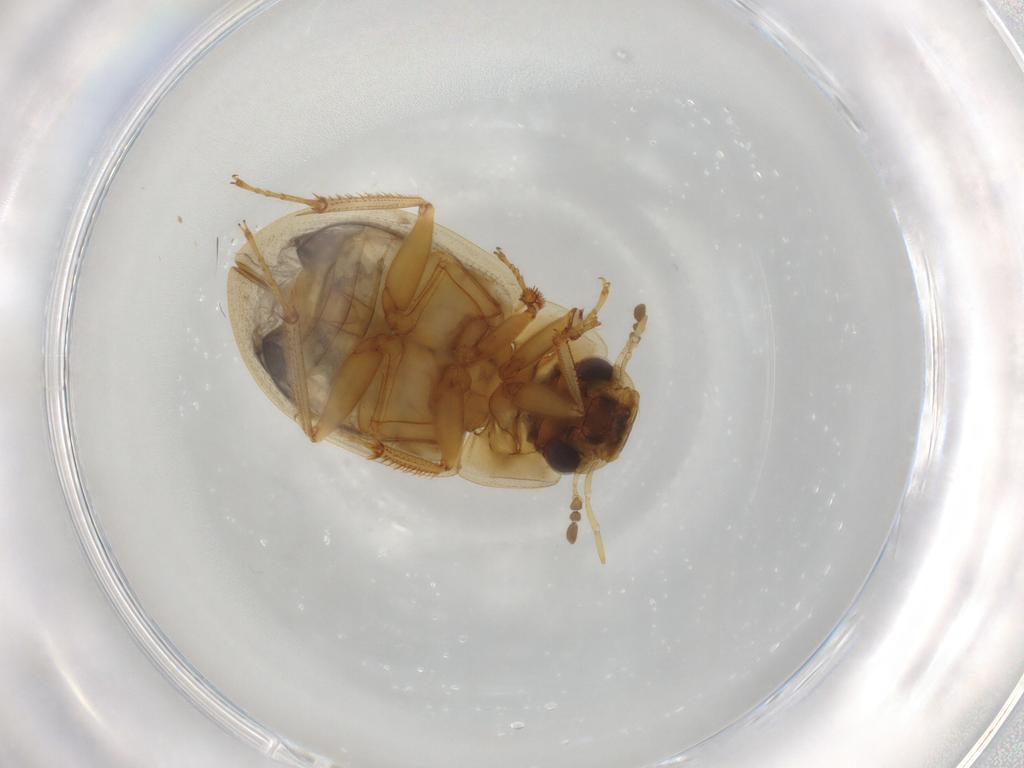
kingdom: Animalia
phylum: Arthropoda
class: Insecta
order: Coleoptera
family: Hydrophilidae
